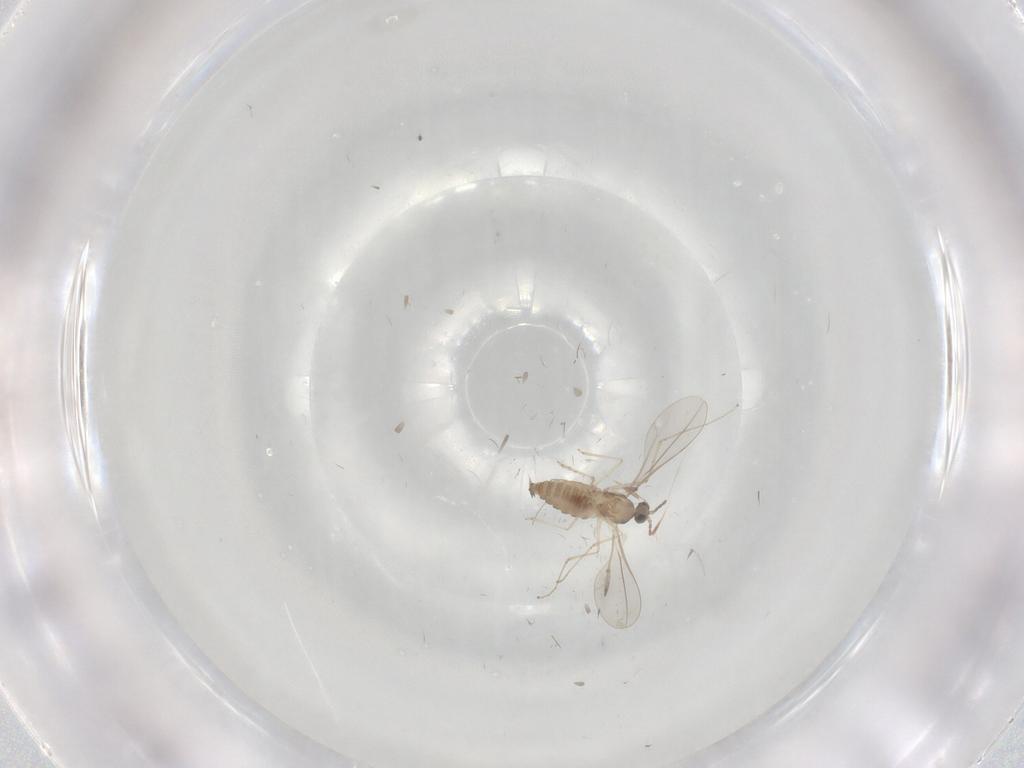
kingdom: Animalia
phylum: Arthropoda
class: Insecta
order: Diptera
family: Cecidomyiidae
